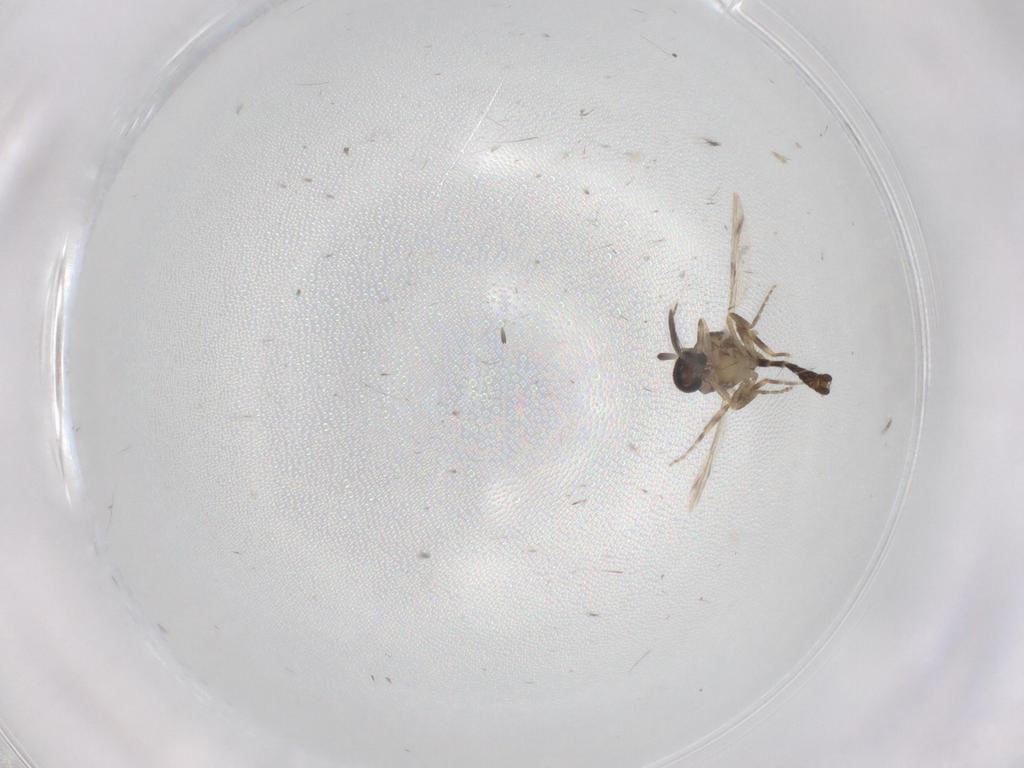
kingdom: Animalia
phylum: Arthropoda
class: Insecta
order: Diptera
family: Ceratopogonidae
